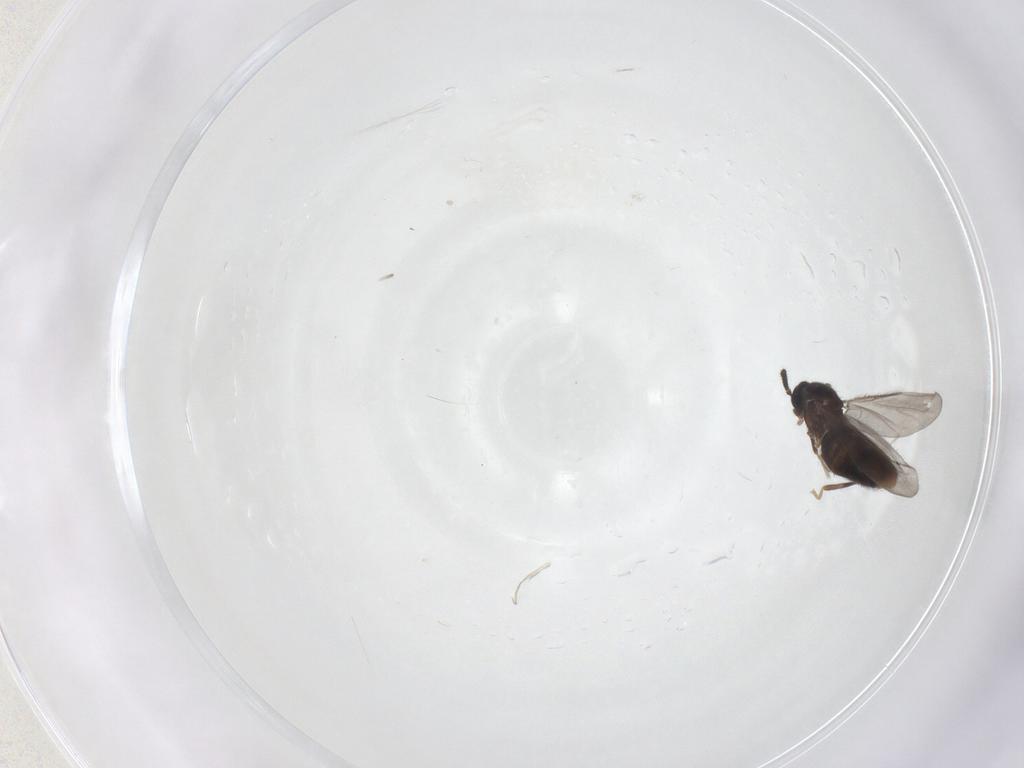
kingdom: Animalia
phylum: Arthropoda
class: Insecta
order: Diptera
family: Scatopsidae
